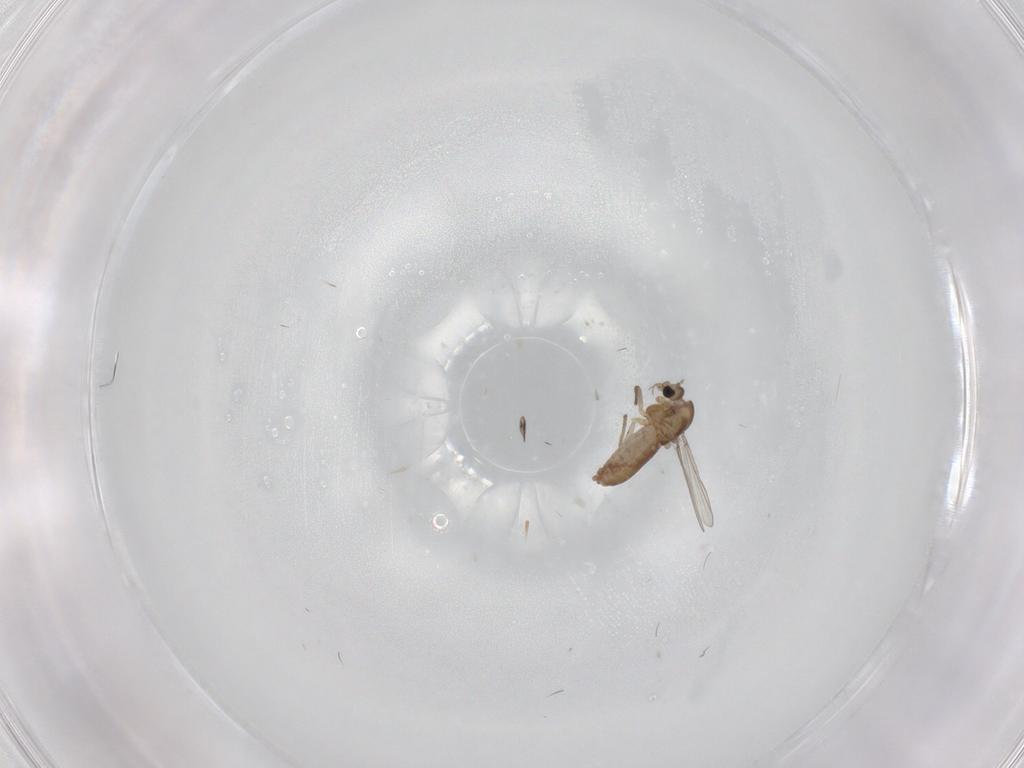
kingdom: Animalia
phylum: Arthropoda
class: Insecta
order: Diptera
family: Chironomidae
